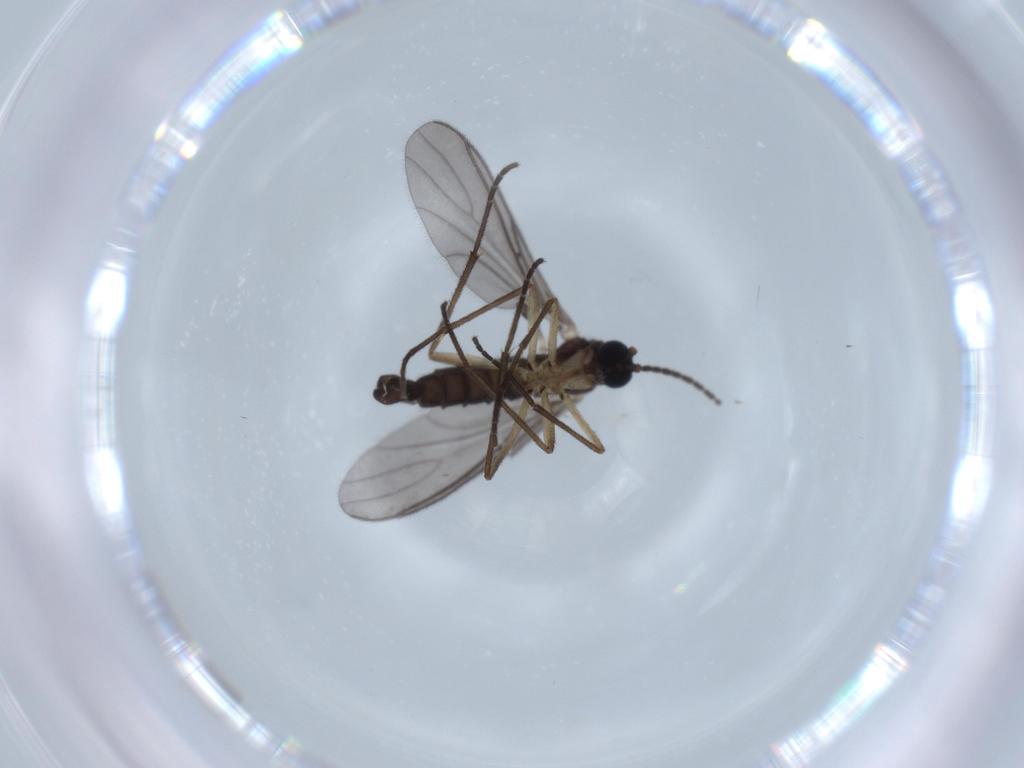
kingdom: Animalia
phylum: Arthropoda
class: Insecta
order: Diptera
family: Sciaridae
